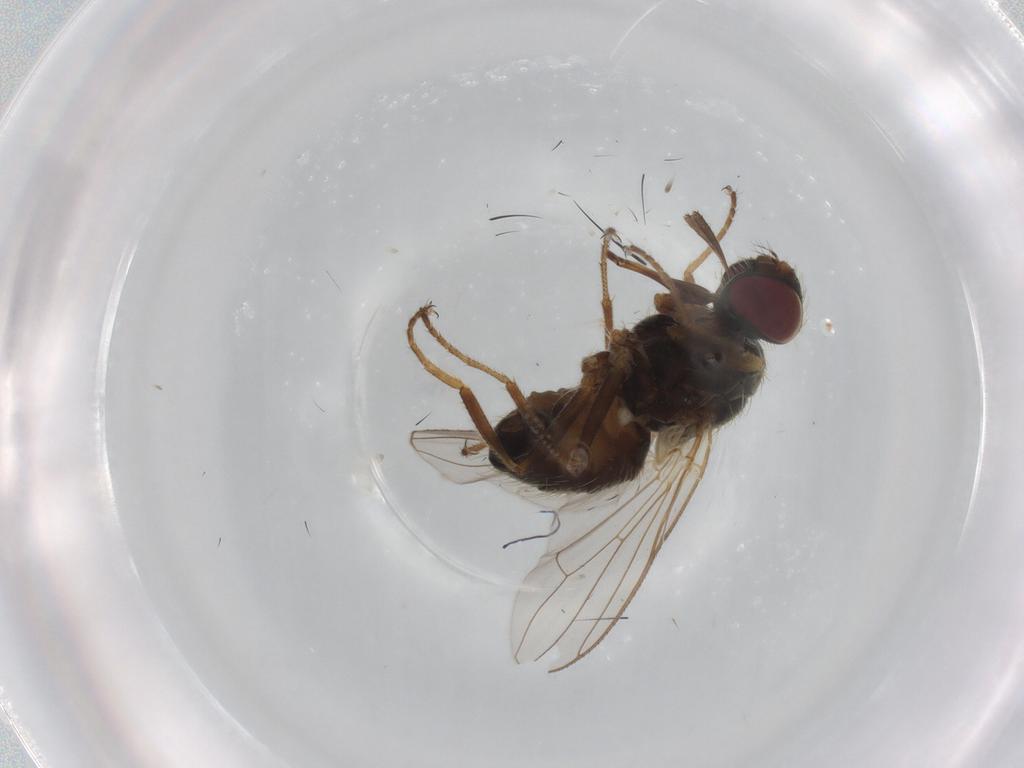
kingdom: Animalia
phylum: Arthropoda
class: Insecta
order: Diptera
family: Muscidae
